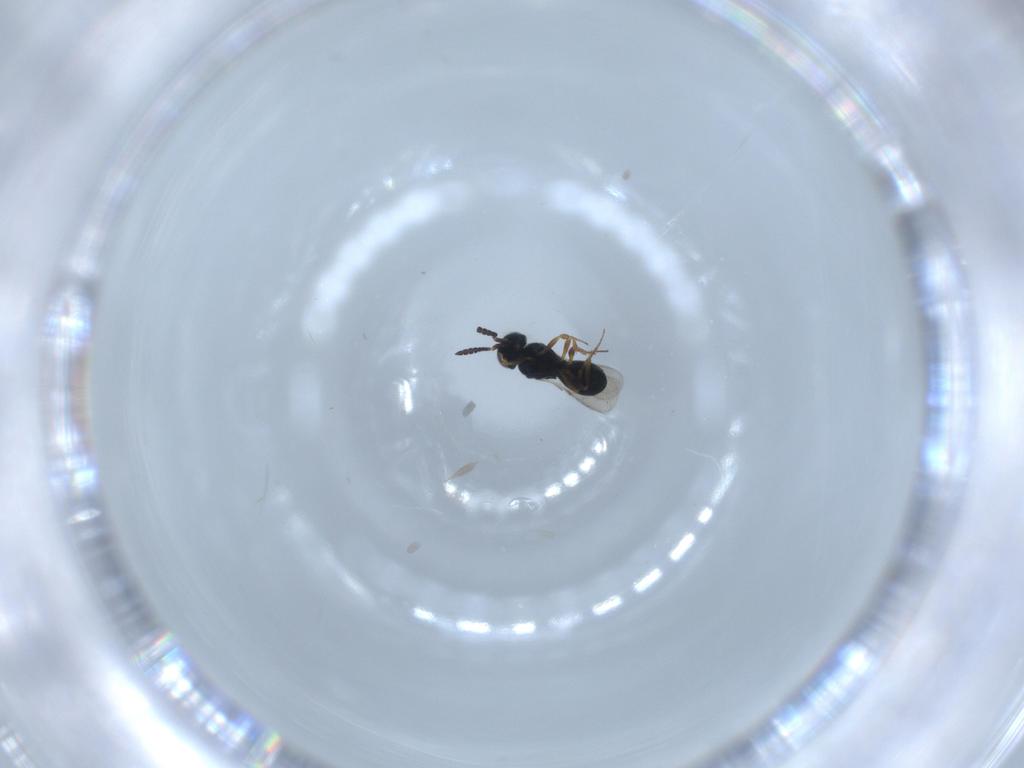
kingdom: Animalia
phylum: Arthropoda
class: Insecta
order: Hymenoptera
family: Scelionidae
